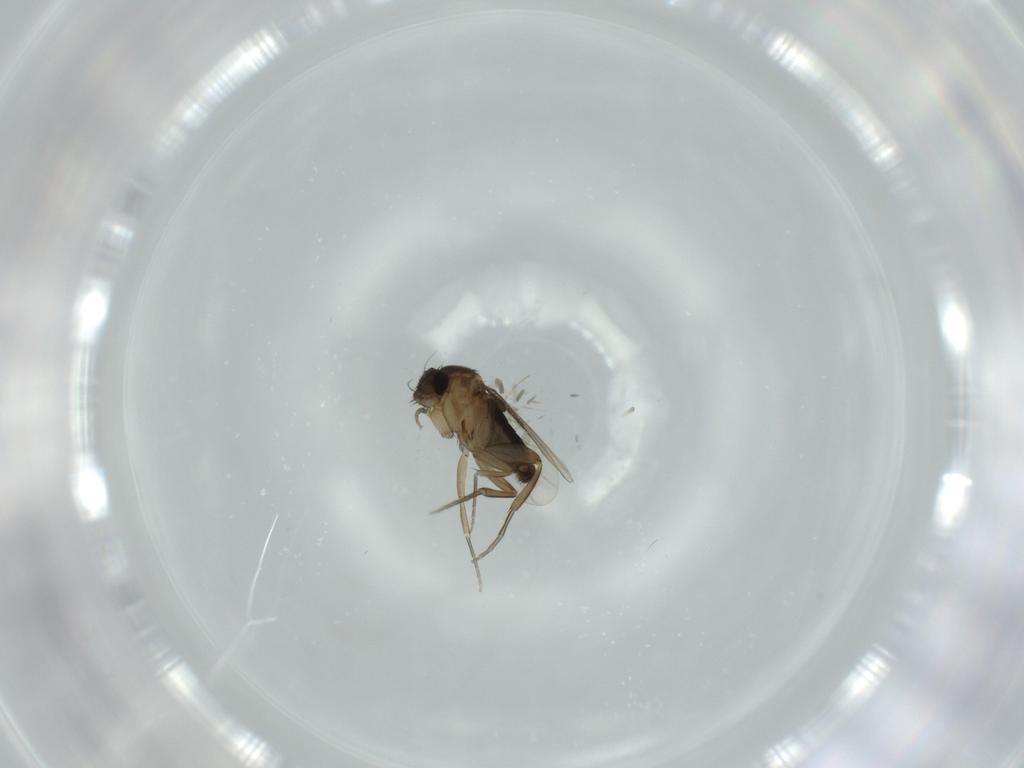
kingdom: Animalia
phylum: Arthropoda
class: Insecta
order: Diptera
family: Phoridae
